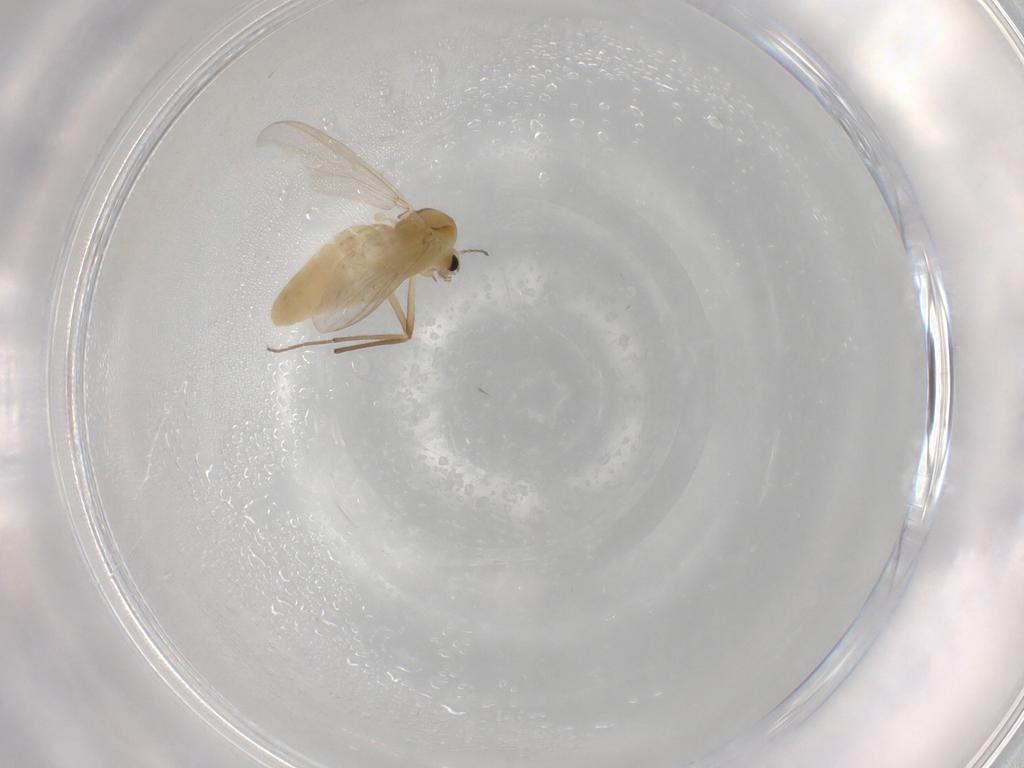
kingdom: Animalia
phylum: Arthropoda
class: Insecta
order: Diptera
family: Chironomidae
